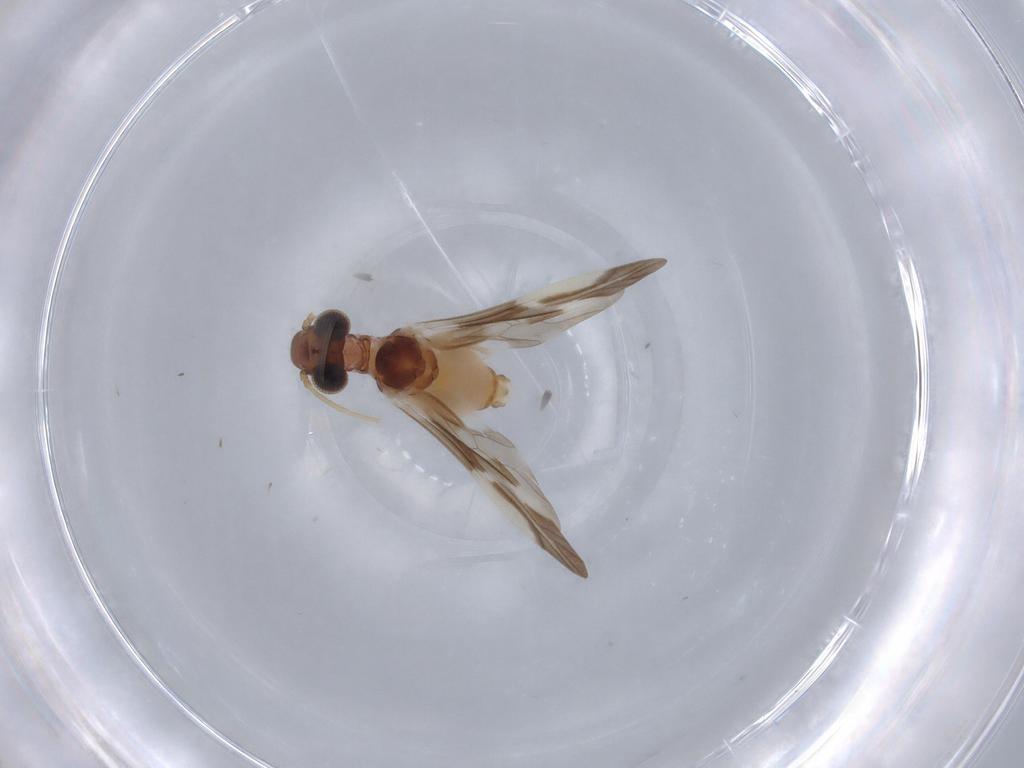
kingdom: Animalia
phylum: Arthropoda
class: Insecta
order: Psocodea
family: Caeciliusidae
